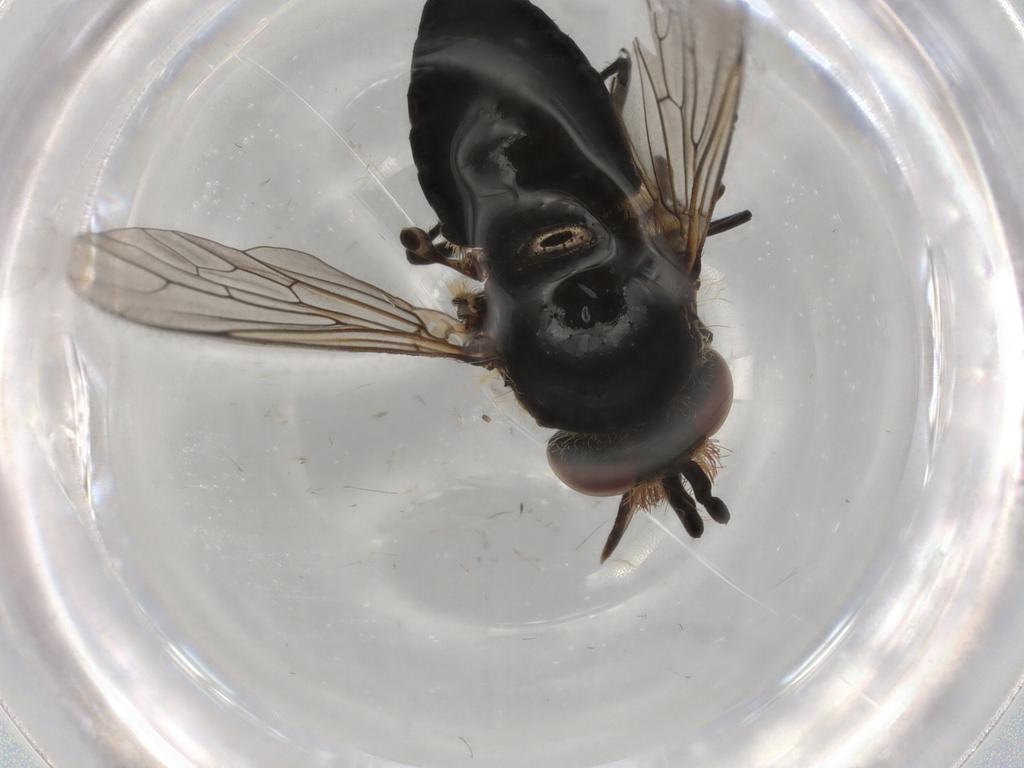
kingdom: Animalia
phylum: Arthropoda
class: Insecta
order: Diptera
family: Bombyliidae
